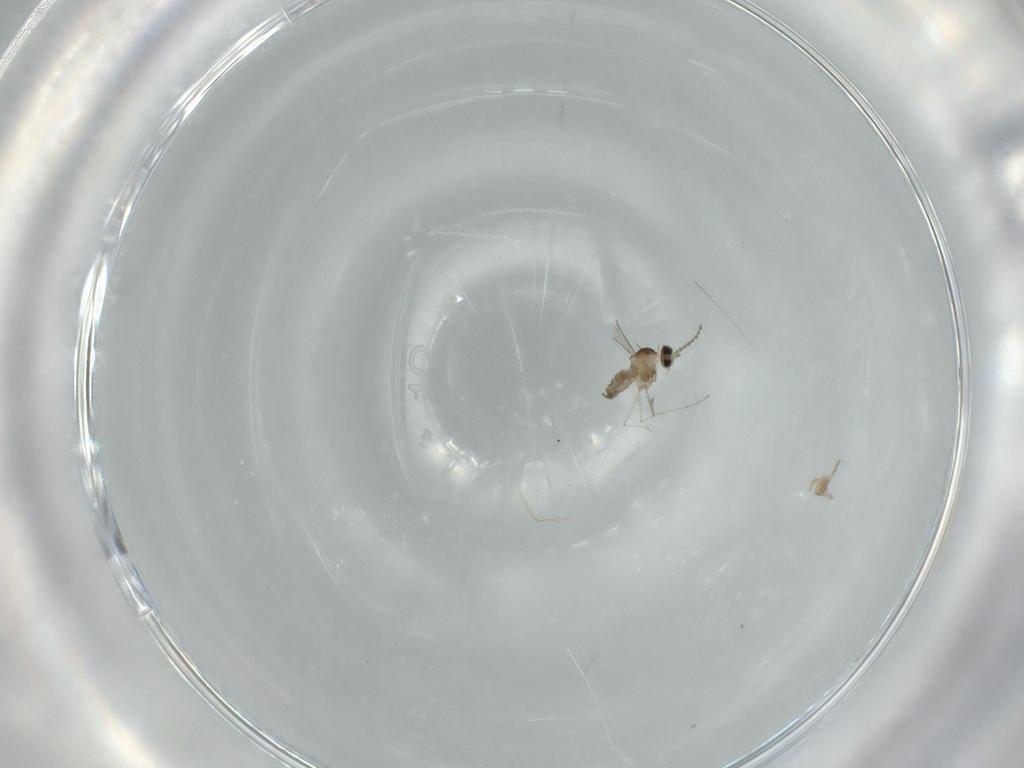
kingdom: Animalia
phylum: Arthropoda
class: Insecta
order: Diptera
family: Cecidomyiidae
